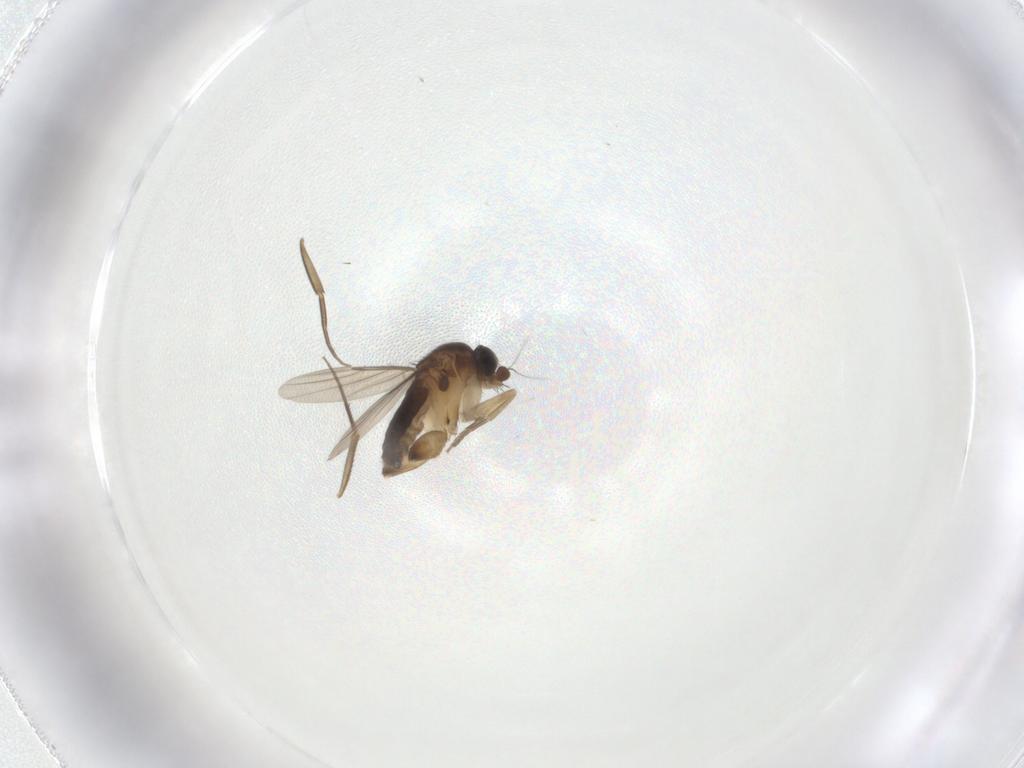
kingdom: Animalia
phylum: Arthropoda
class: Insecta
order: Diptera
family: Phoridae
